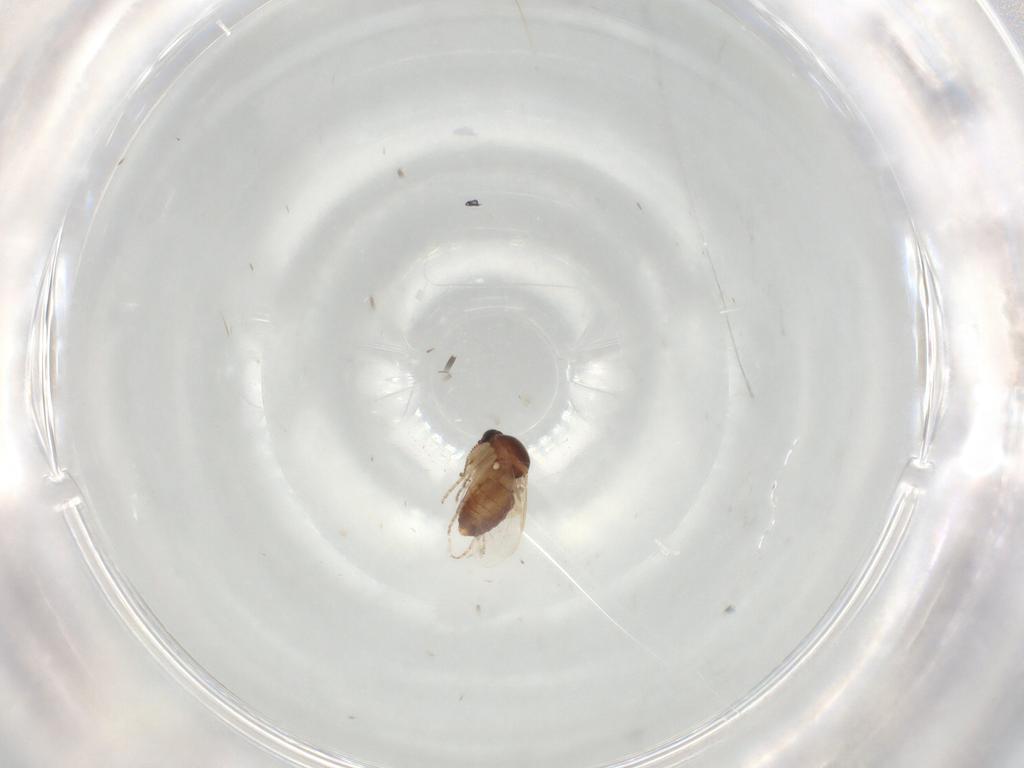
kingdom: Animalia
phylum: Arthropoda
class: Insecta
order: Diptera
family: Ceratopogonidae
